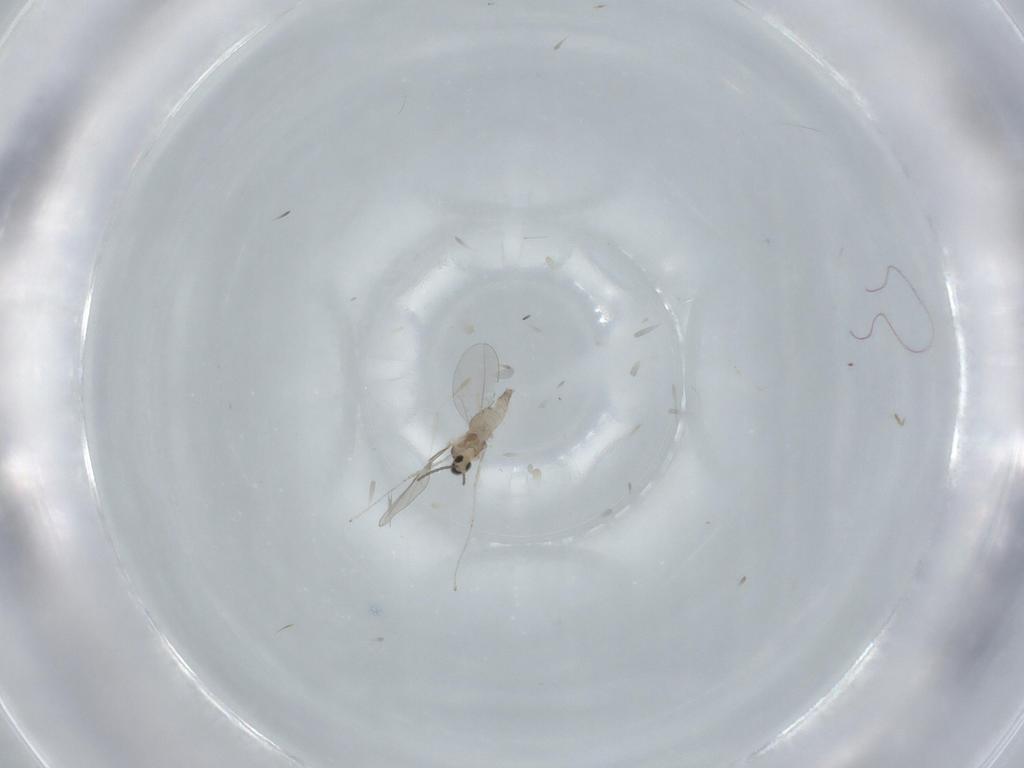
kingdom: Animalia
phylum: Arthropoda
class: Insecta
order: Diptera
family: Cecidomyiidae
